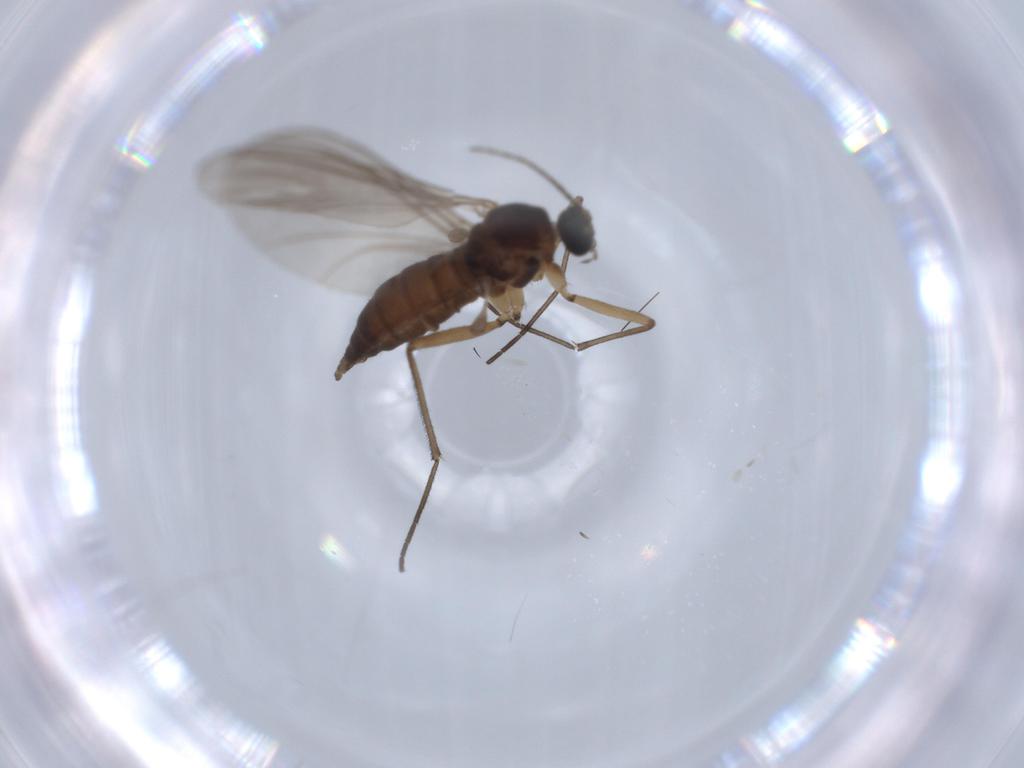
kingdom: Animalia
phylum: Arthropoda
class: Insecta
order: Diptera
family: Sciaridae
